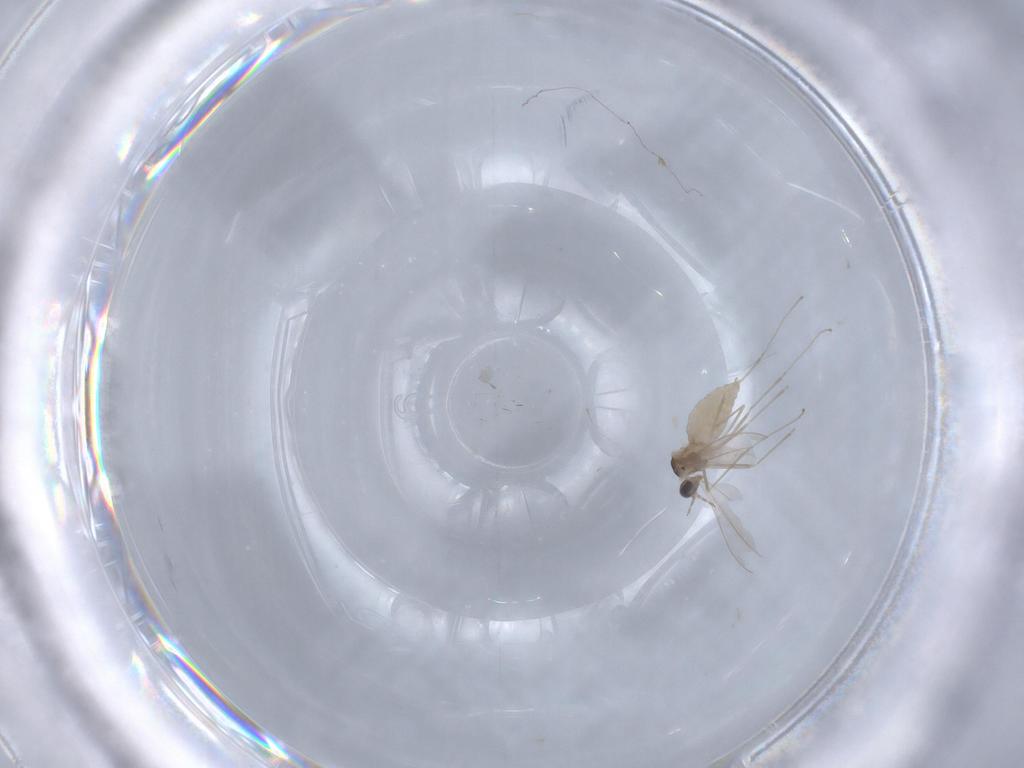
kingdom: Animalia
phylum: Arthropoda
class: Insecta
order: Diptera
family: Cecidomyiidae
